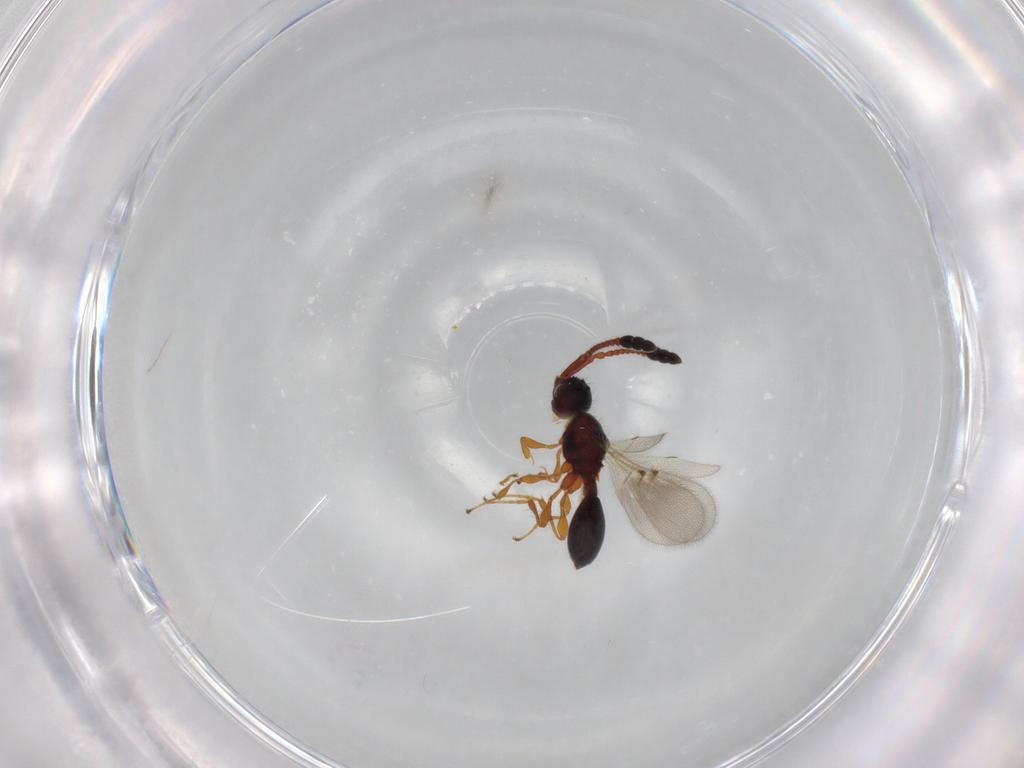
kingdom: Animalia
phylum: Arthropoda
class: Insecta
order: Hymenoptera
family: Diapriidae
